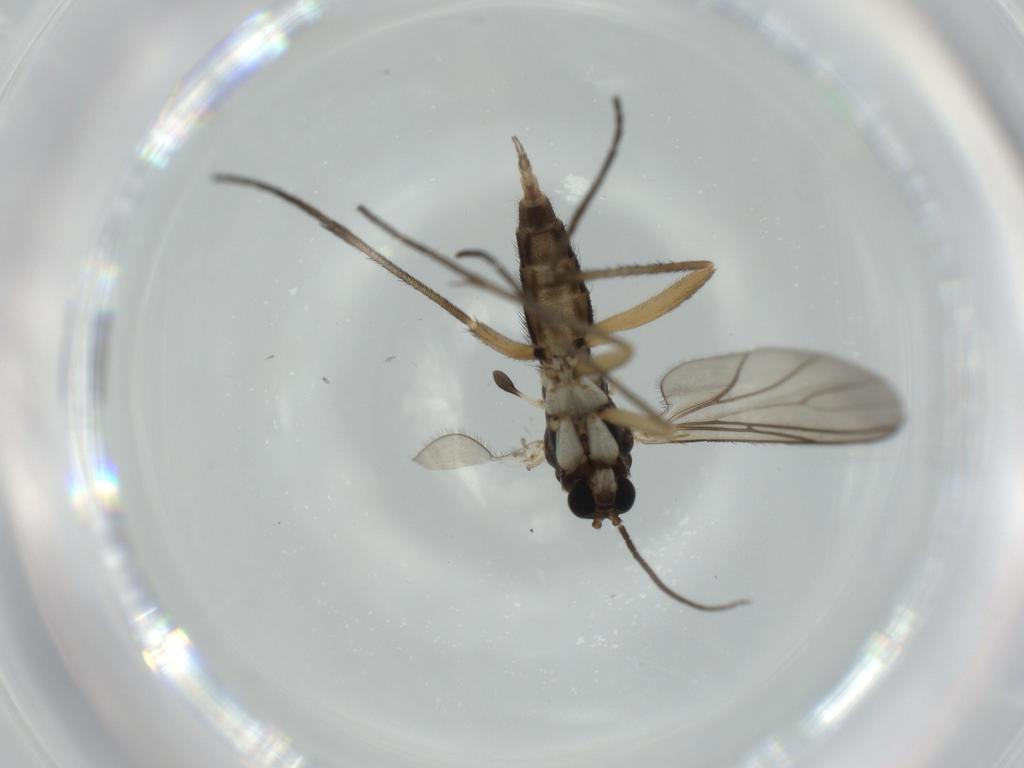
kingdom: Animalia
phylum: Arthropoda
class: Insecta
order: Diptera
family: Sciaridae
